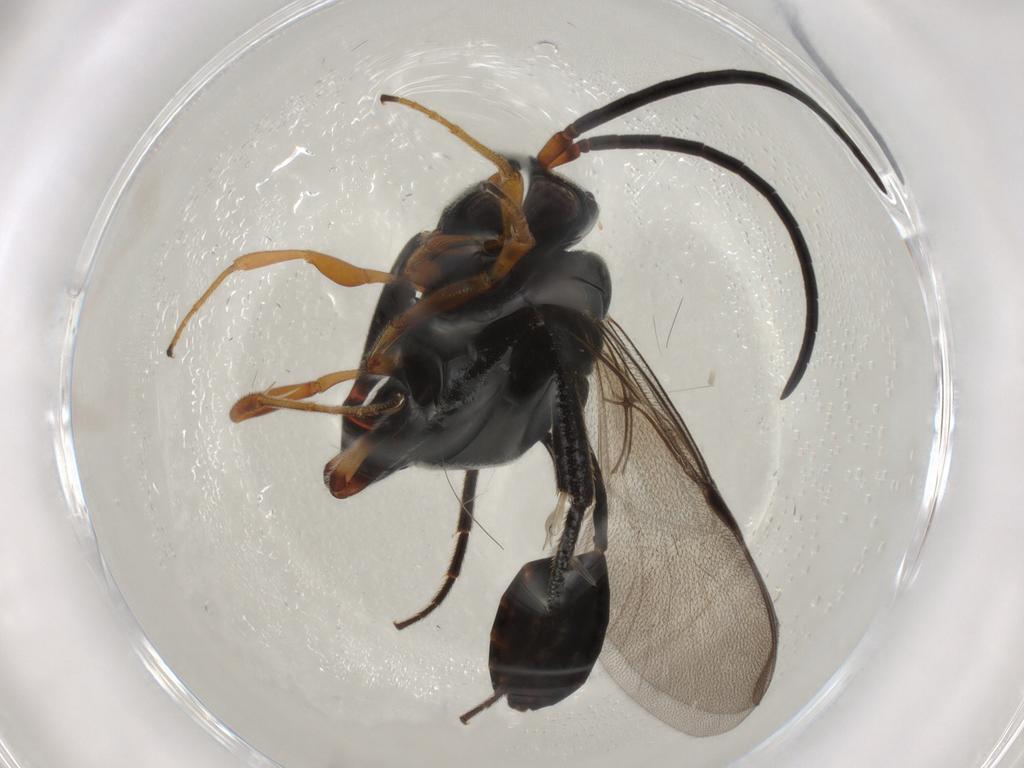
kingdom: Animalia
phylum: Arthropoda
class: Insecta
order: Hymenoptera
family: Evaniidae
